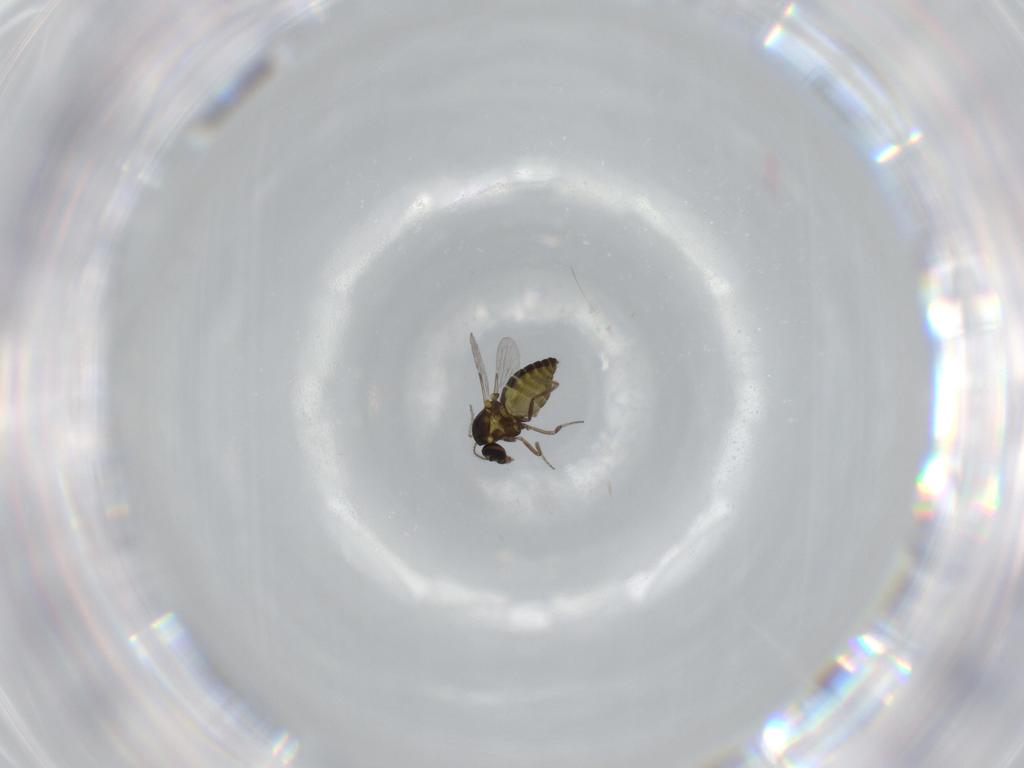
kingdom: Animalia
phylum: Arthropoda
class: Insecta
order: Diptera
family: Ceratopogonidae
